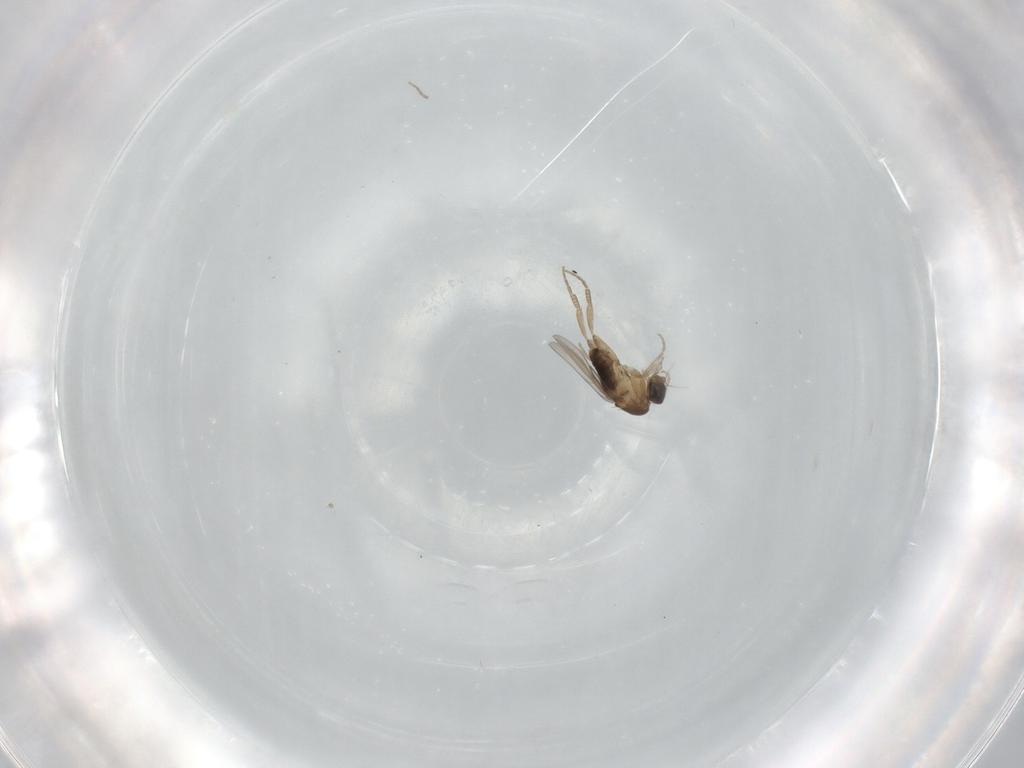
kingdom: Animalia
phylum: Arthropoda
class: Insecta
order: Diptera
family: Phoridae
